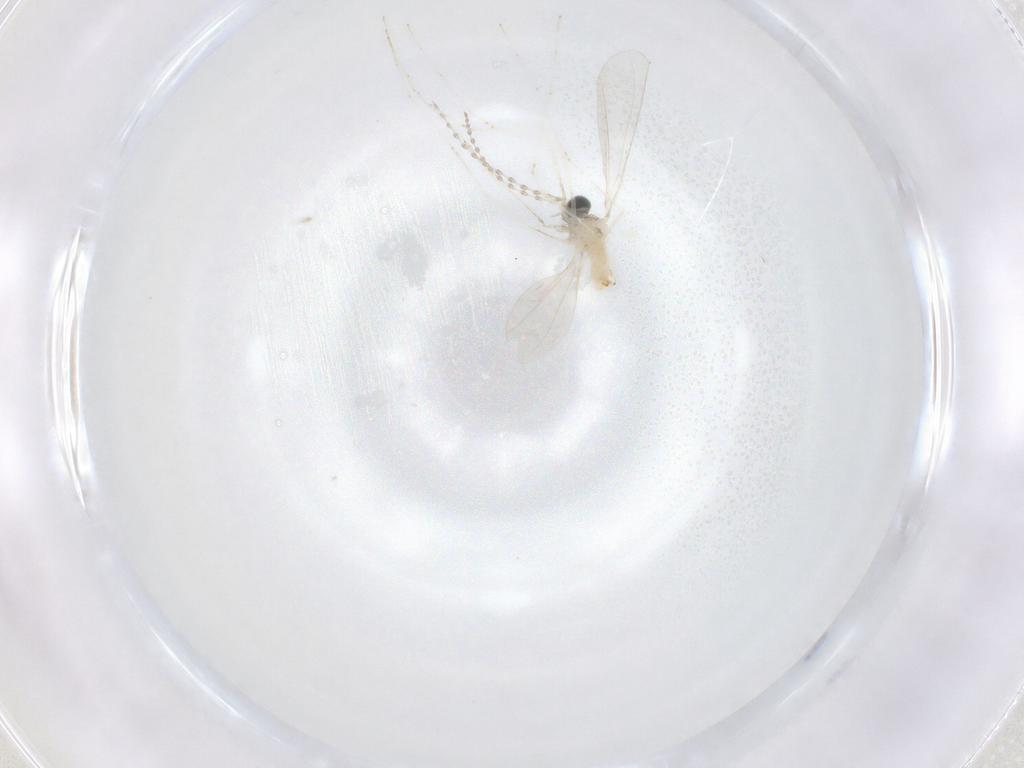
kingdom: Animalia
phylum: Arthropoda
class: Insecta
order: Diptera
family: Cecidomyiidae
